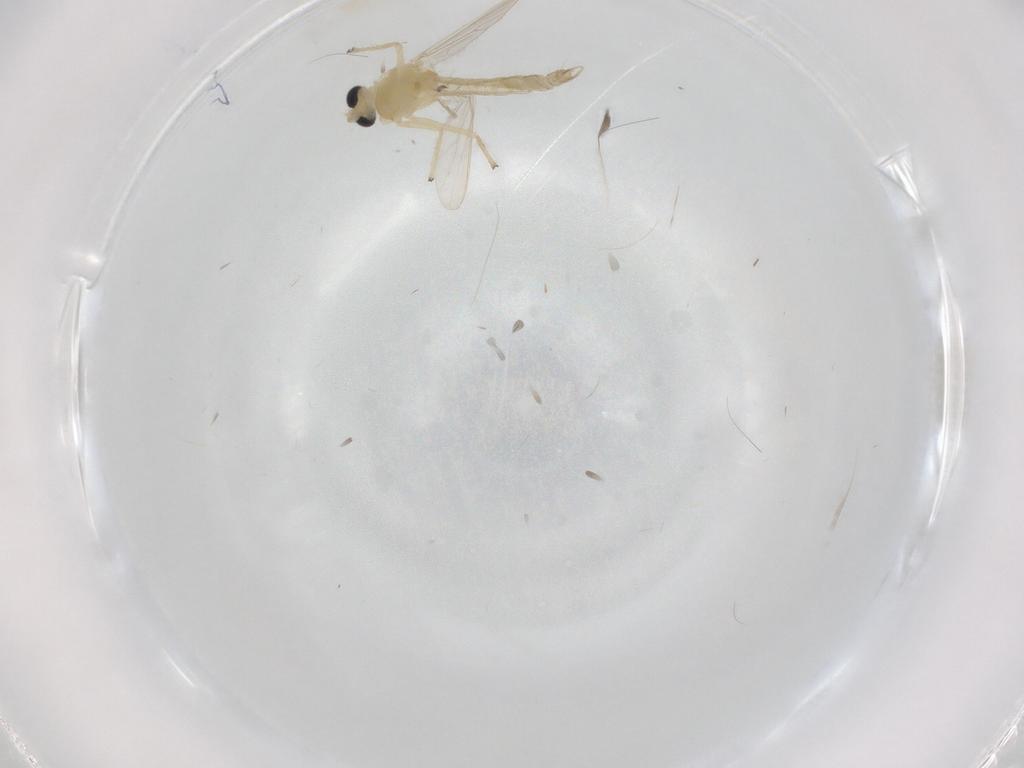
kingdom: Animalia
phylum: Arthropoda
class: Insecta
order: Diptera
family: Chironomidae
